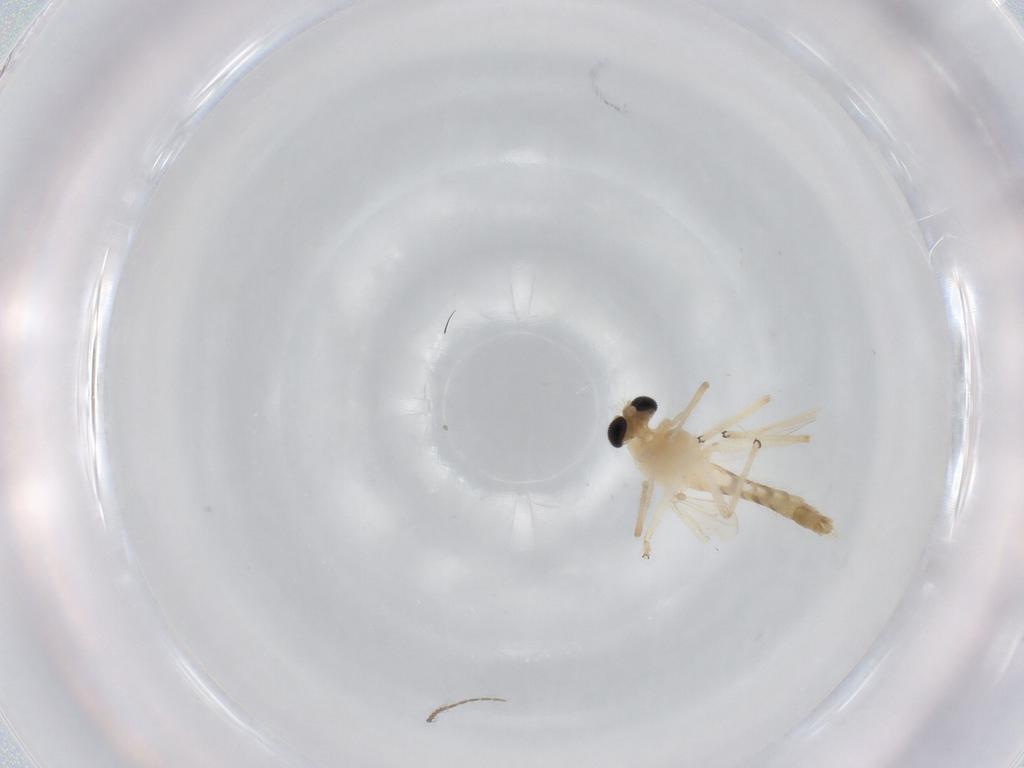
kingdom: Animalia
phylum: Arthropoda
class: Insecta
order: Diptera
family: Chironomidae
